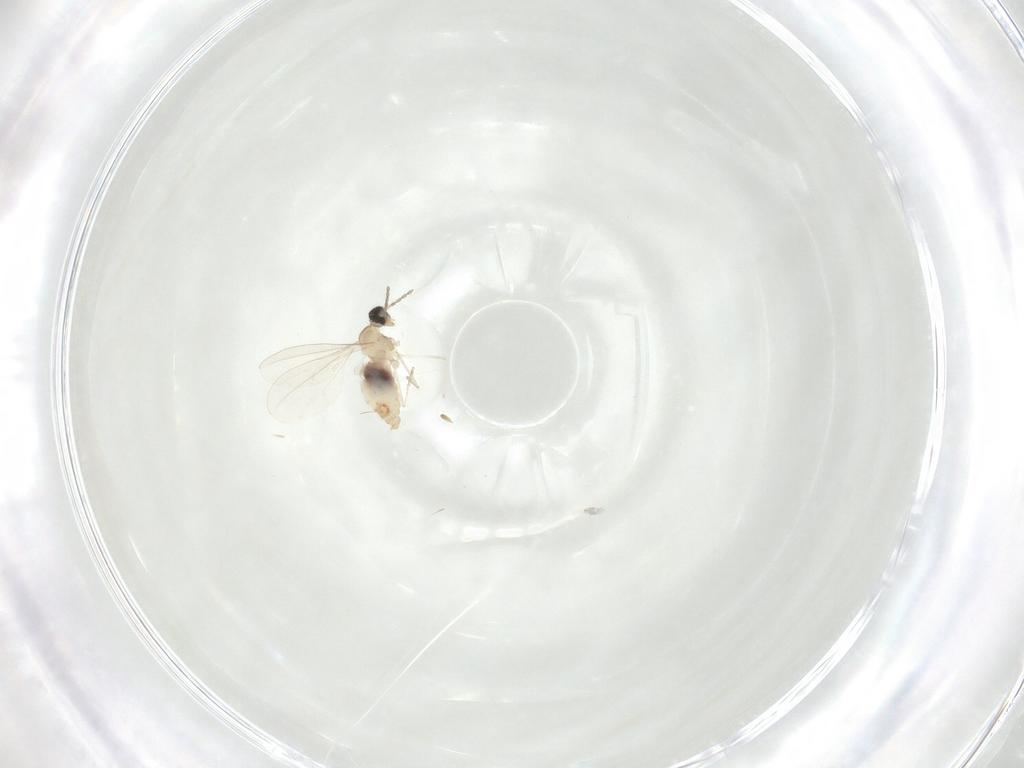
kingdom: Animalia
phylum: Arthropoda
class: Insecta
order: Diptera
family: Cecidomyiidae
